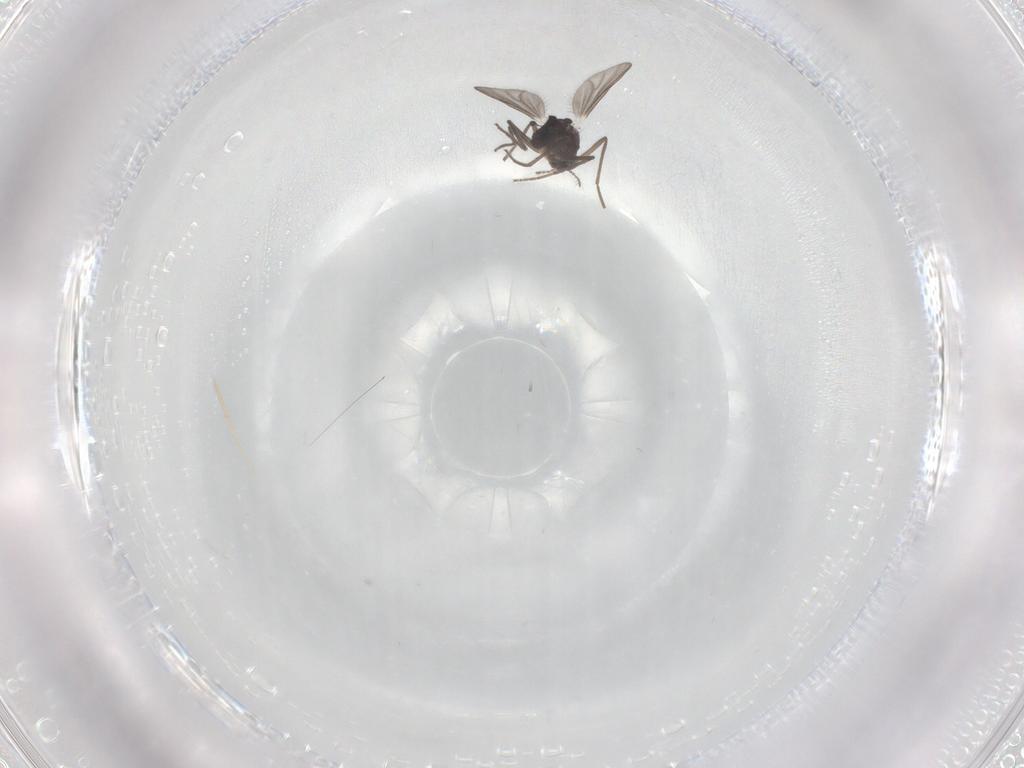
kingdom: Animalia
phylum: Arthropoda
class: Insecta
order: Diptera
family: Chironomidae
